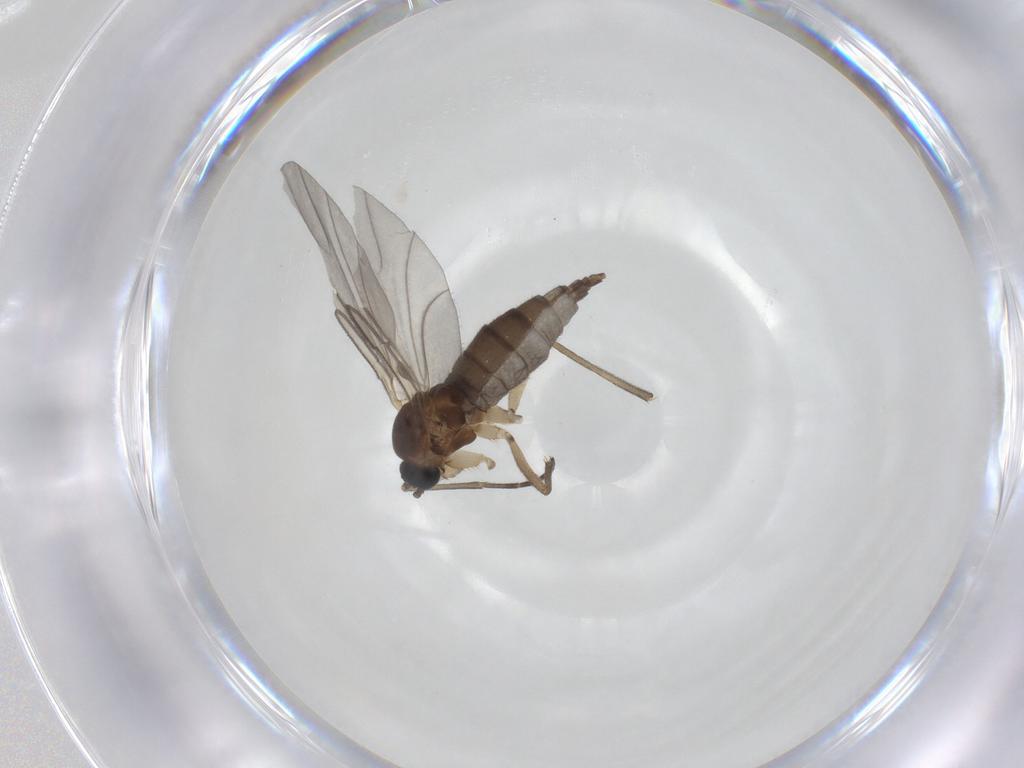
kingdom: Animalia
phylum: Arthropoda
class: Insecta
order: Diptera
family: Sciaridae
